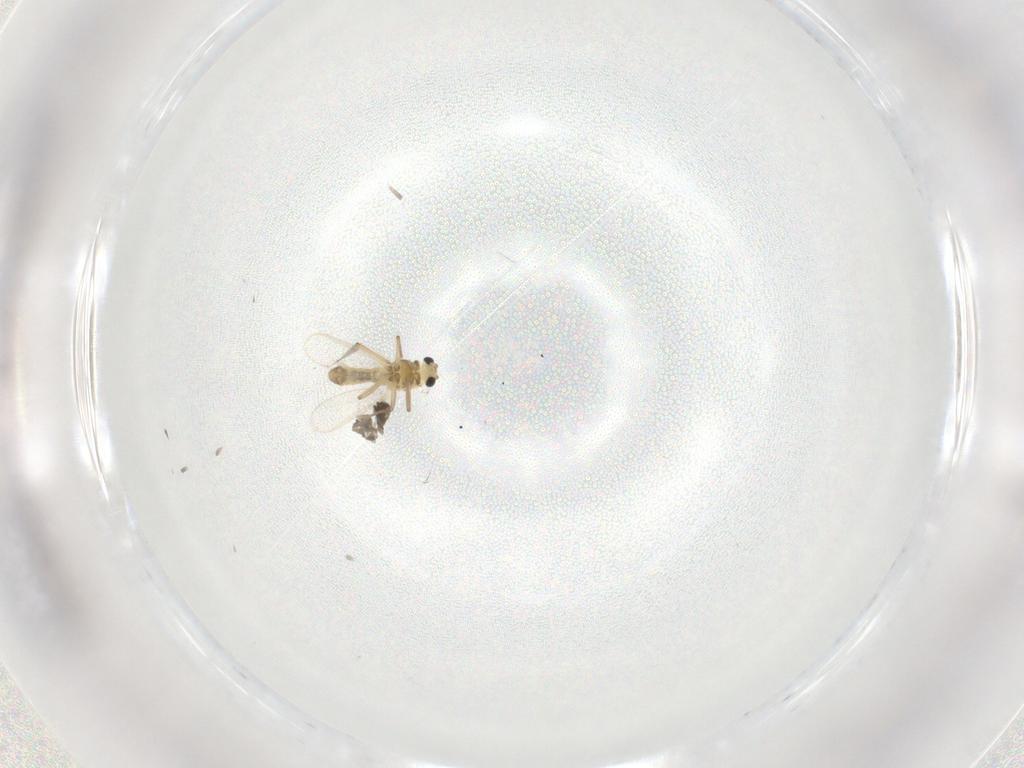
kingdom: Animalia
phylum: Arthropoda
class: Insecta
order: Diptera
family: Chironomidae
